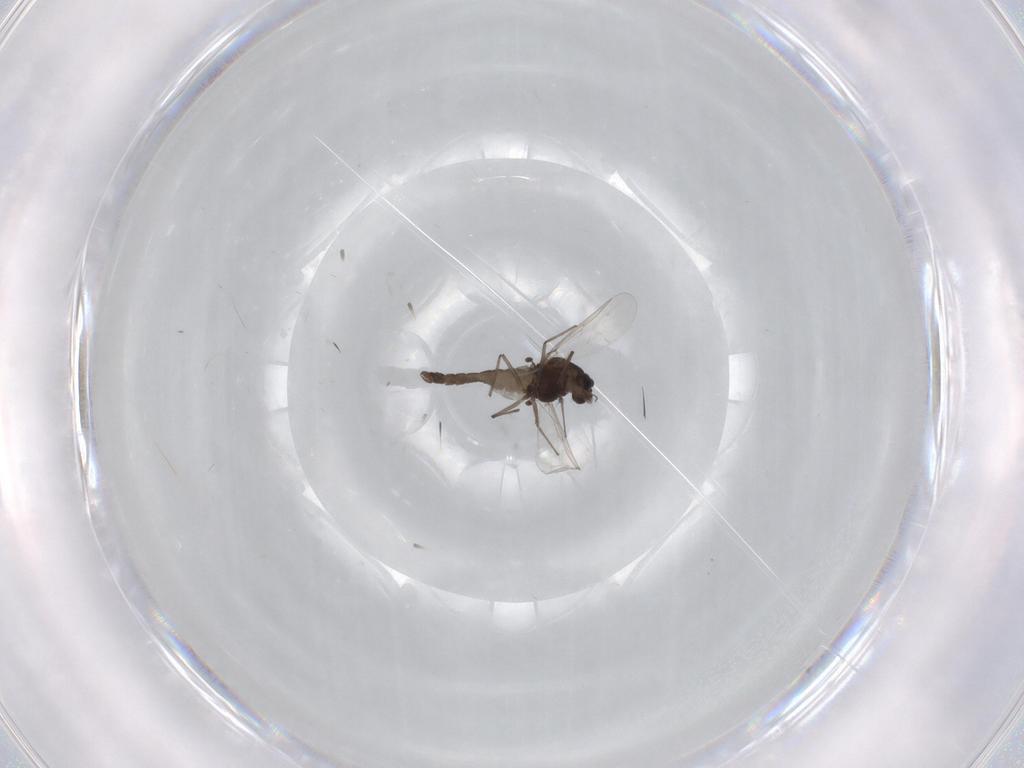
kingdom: Animalia
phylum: Arthropoda
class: Insecta
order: Diptera
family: Chironomidae
